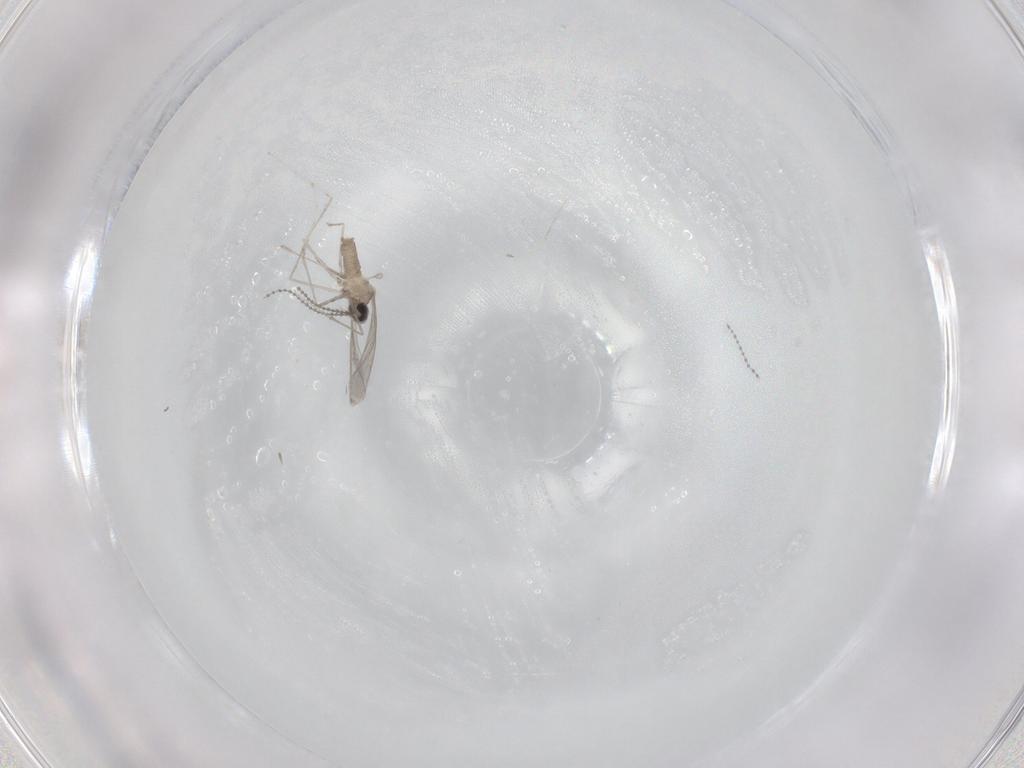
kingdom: Animalia
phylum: Arthropoda
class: Insecta
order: Diptera
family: Cecidomyiidae
